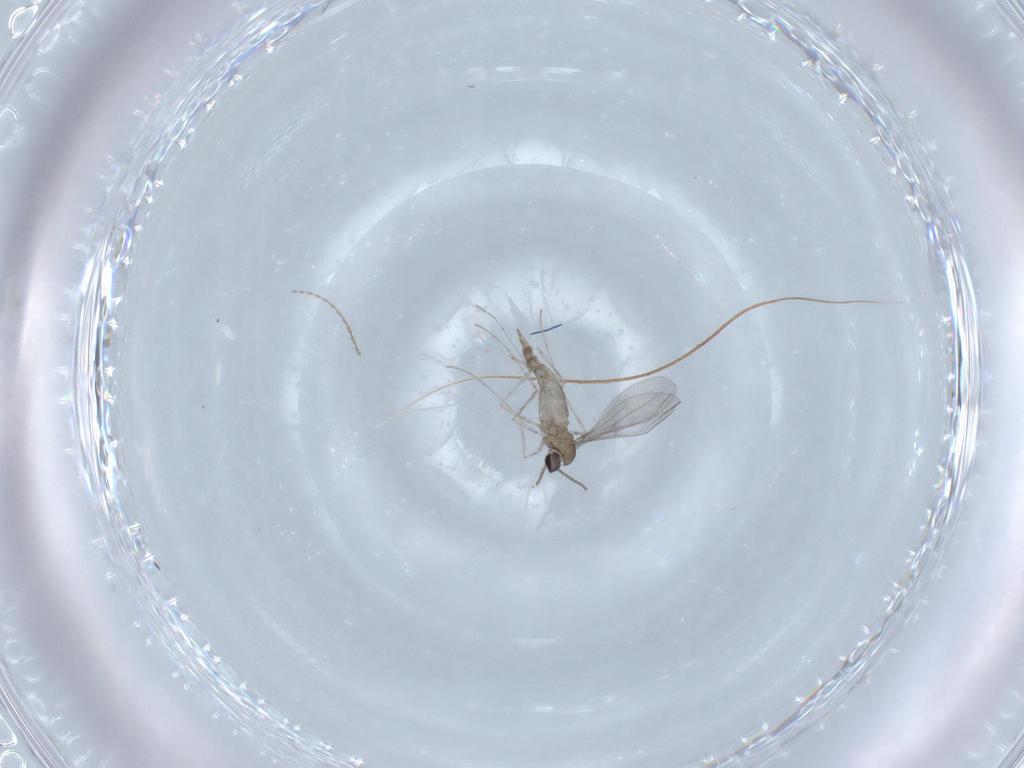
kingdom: Animalia
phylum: Arthropoda
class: Insecta
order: Diptera
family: Cecidomyiidae
